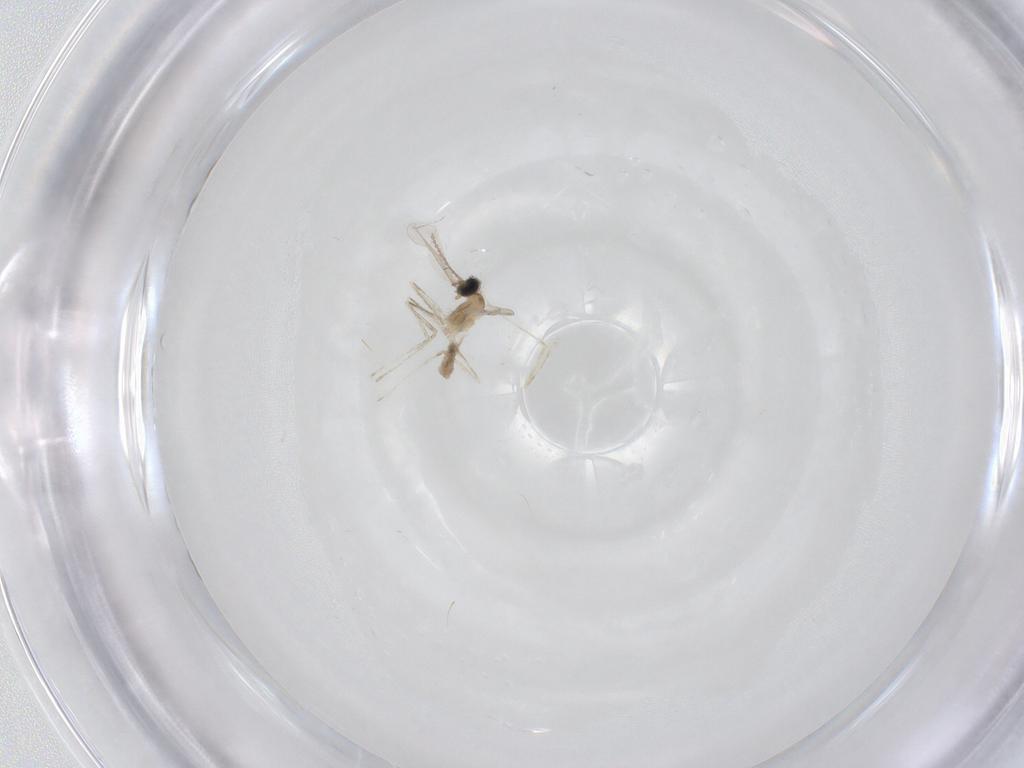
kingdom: Animalia
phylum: Arthropoda
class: Insecta
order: Diptera
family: Cecidomyiidae
